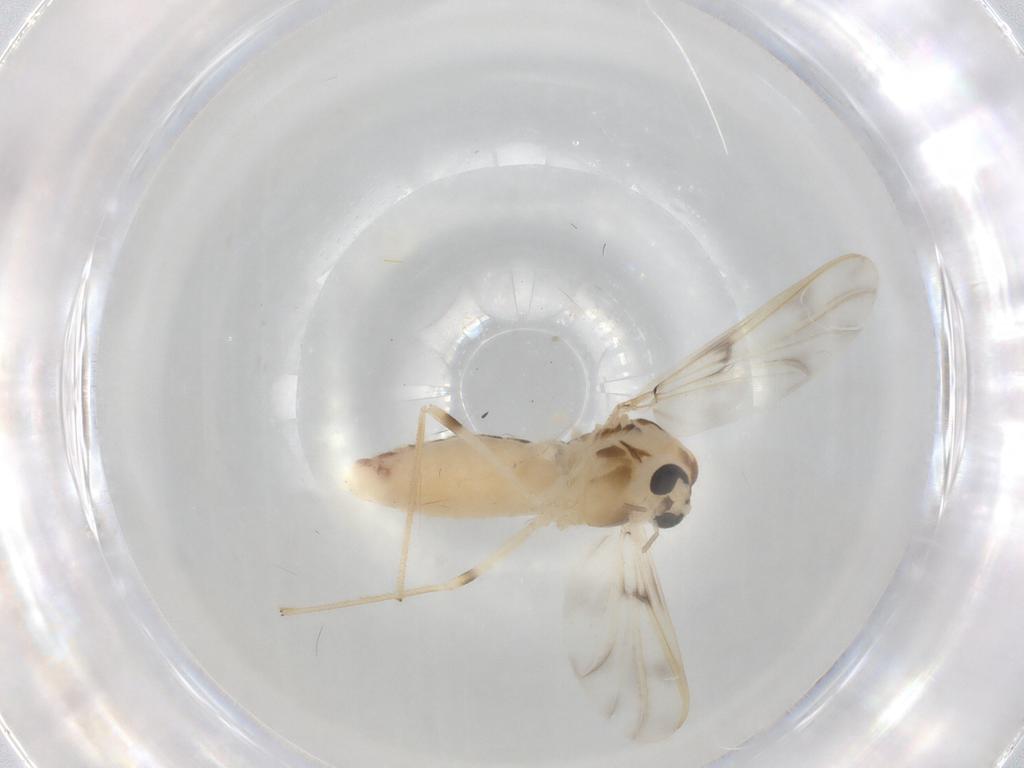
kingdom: Animalia
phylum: Arthropoda
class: Insecta
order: Diptera
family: Chironomidae
